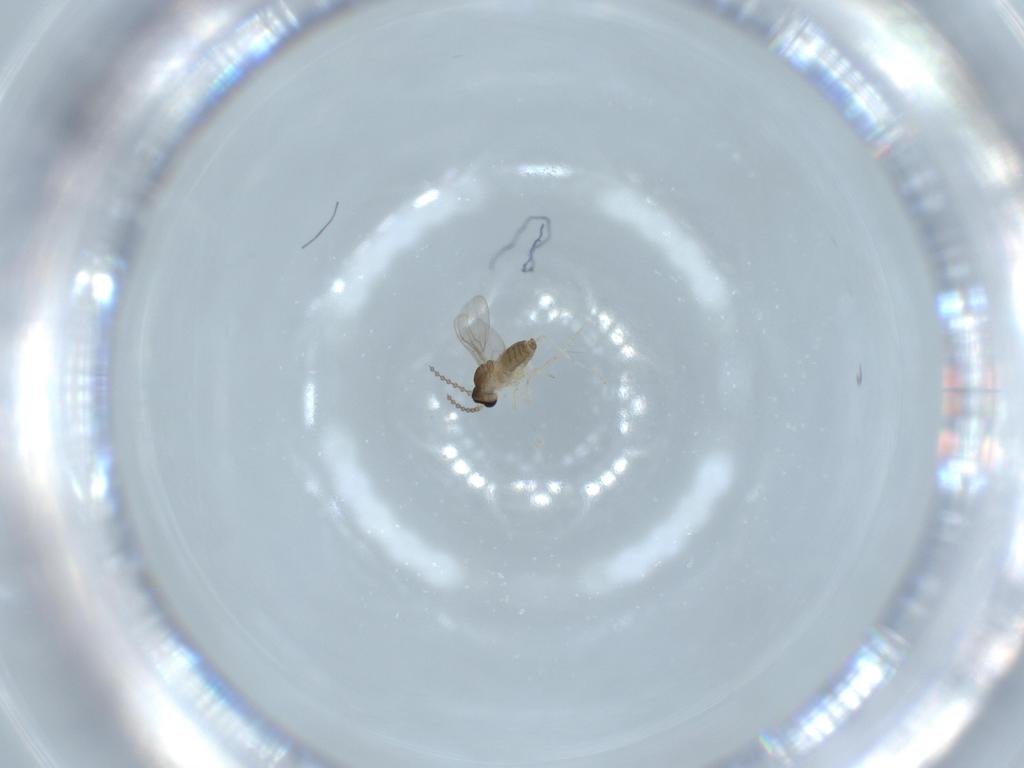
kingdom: Animalia
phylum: Arthropoda
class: Insecta
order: Diptera
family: Cecidomyiidae
